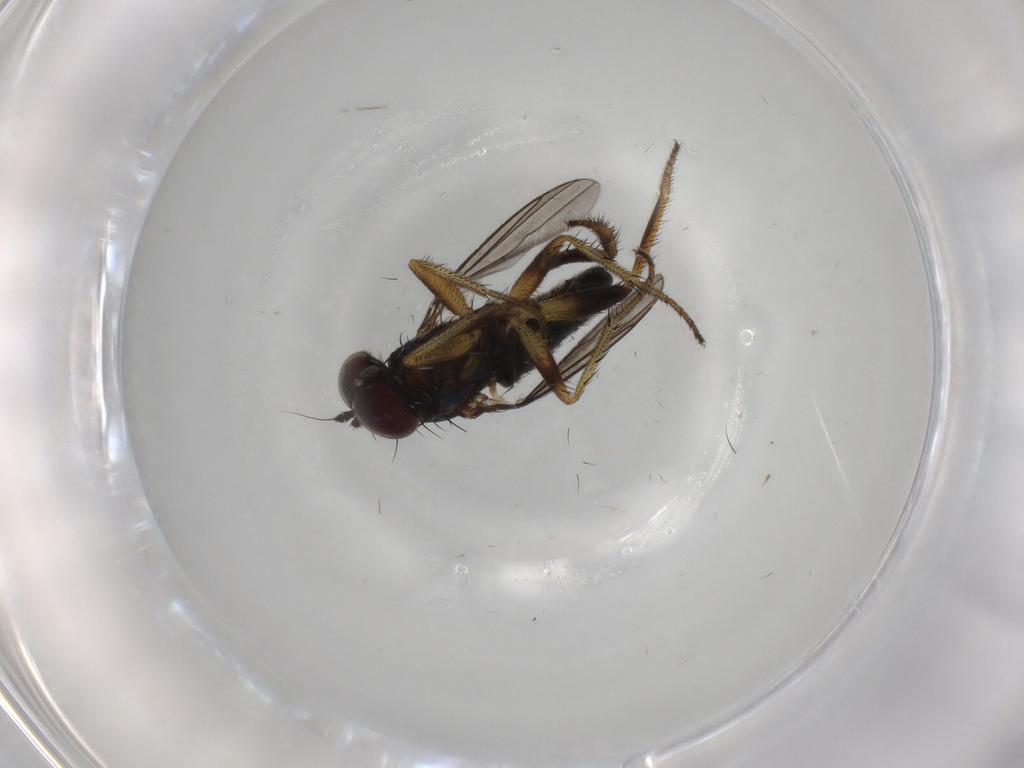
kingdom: Animalia
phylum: Arthropoda
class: Insecta
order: Diptera
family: Dolichopodidae
